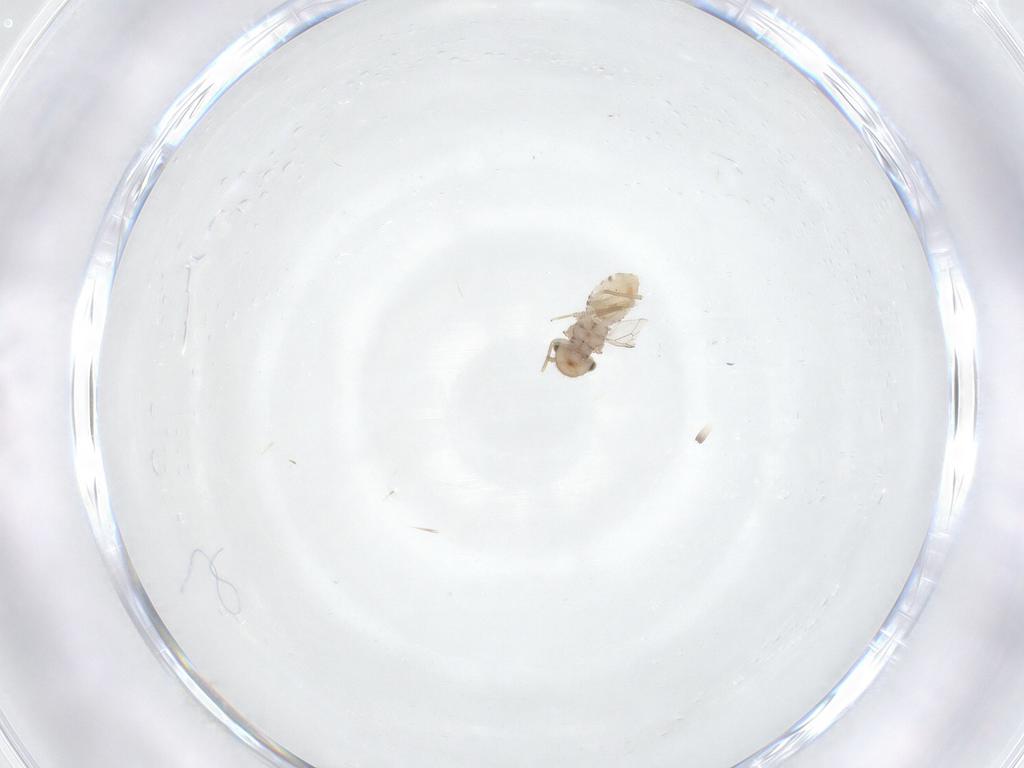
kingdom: Animalia
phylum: Arthropoda
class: Insecta
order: Psocodea
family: Ectopsocidae
